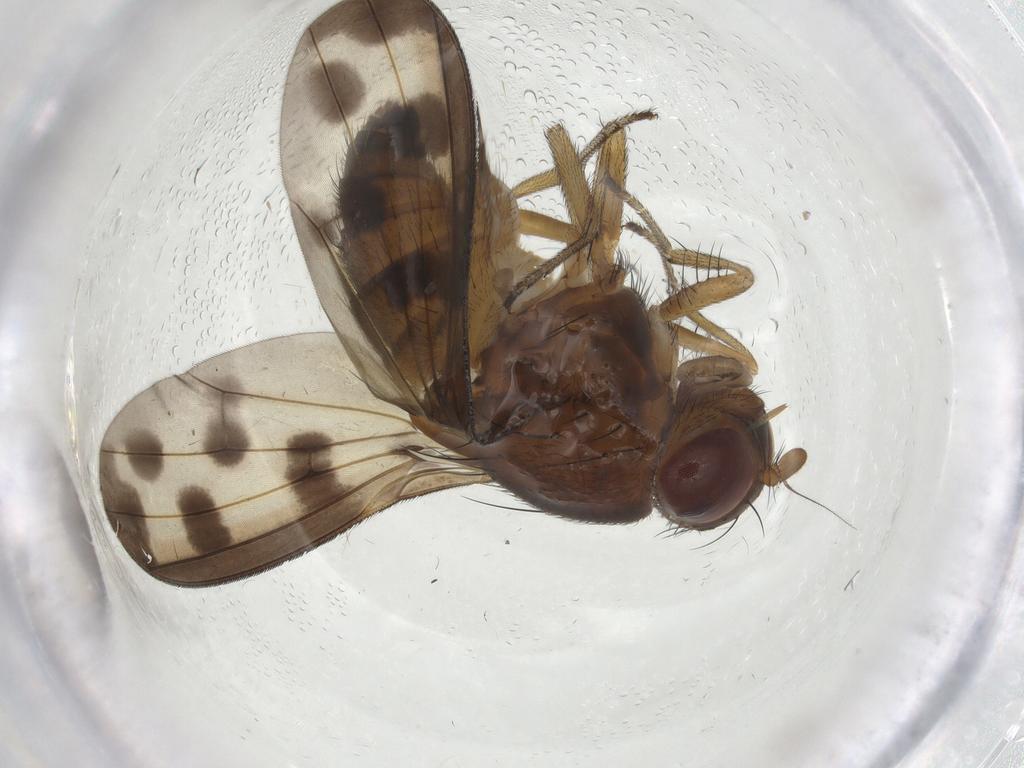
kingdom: Animalia
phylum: Arthropoda
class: Insecta
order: Diptera
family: Chironomidae
